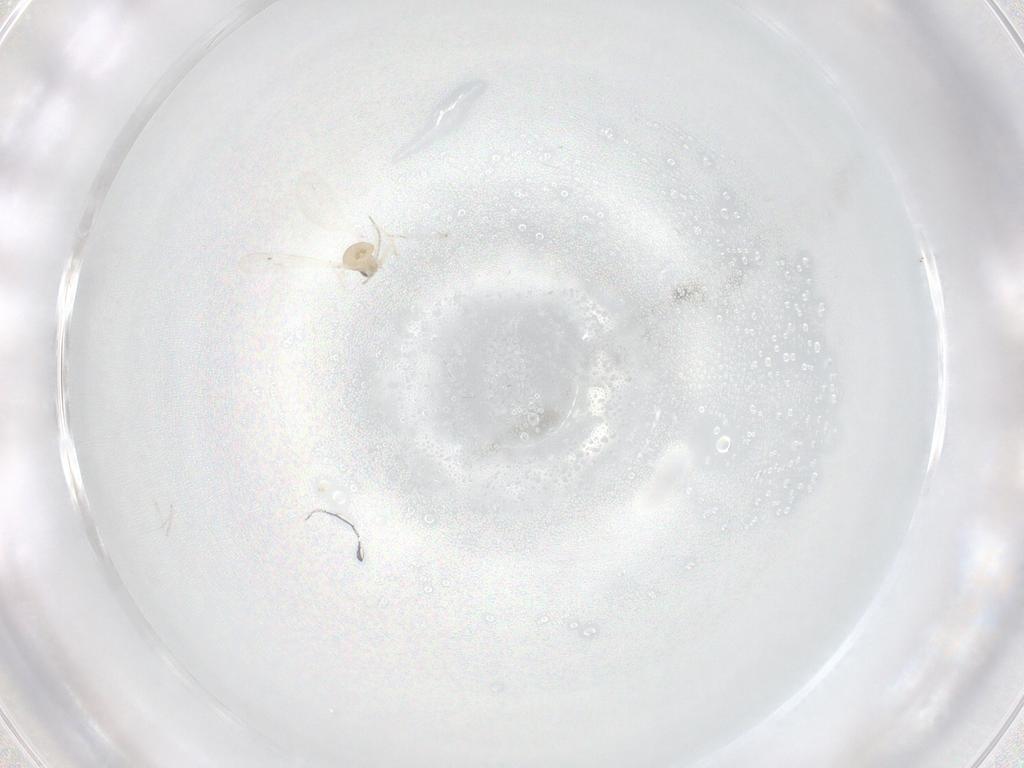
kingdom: Animalia
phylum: Arthropoda
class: Insecta
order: Diptera
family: Cecidomyiidae
